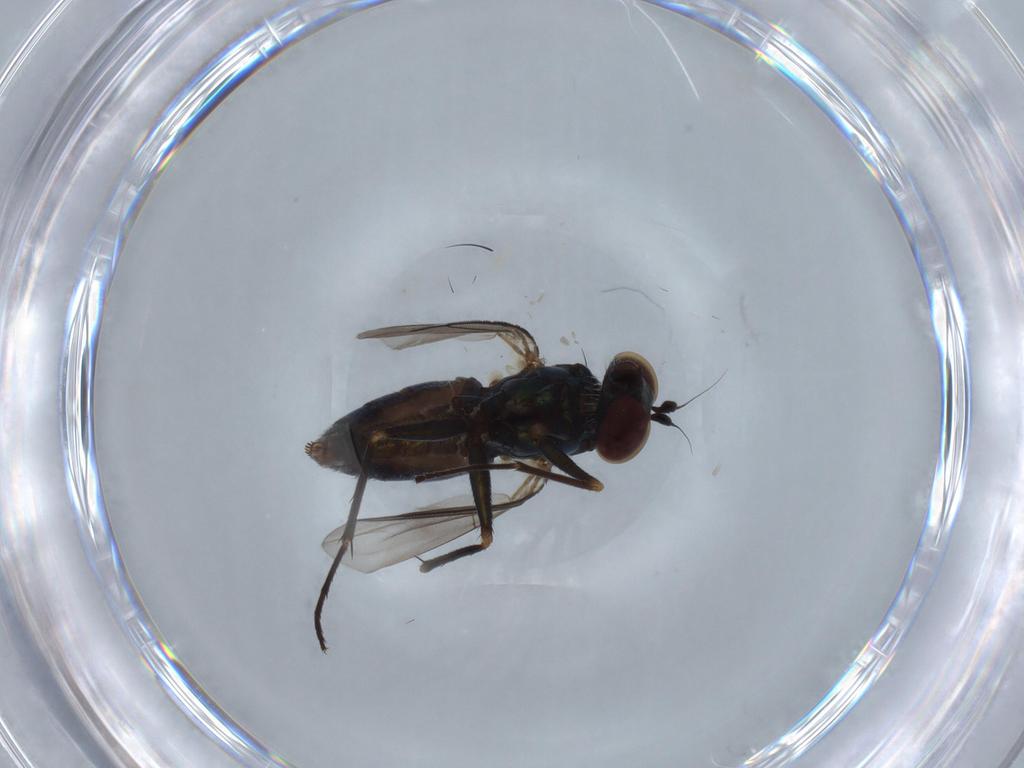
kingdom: Animalia
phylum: Arthropoda
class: Insecta
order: Diptera
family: Dolichopodidae
